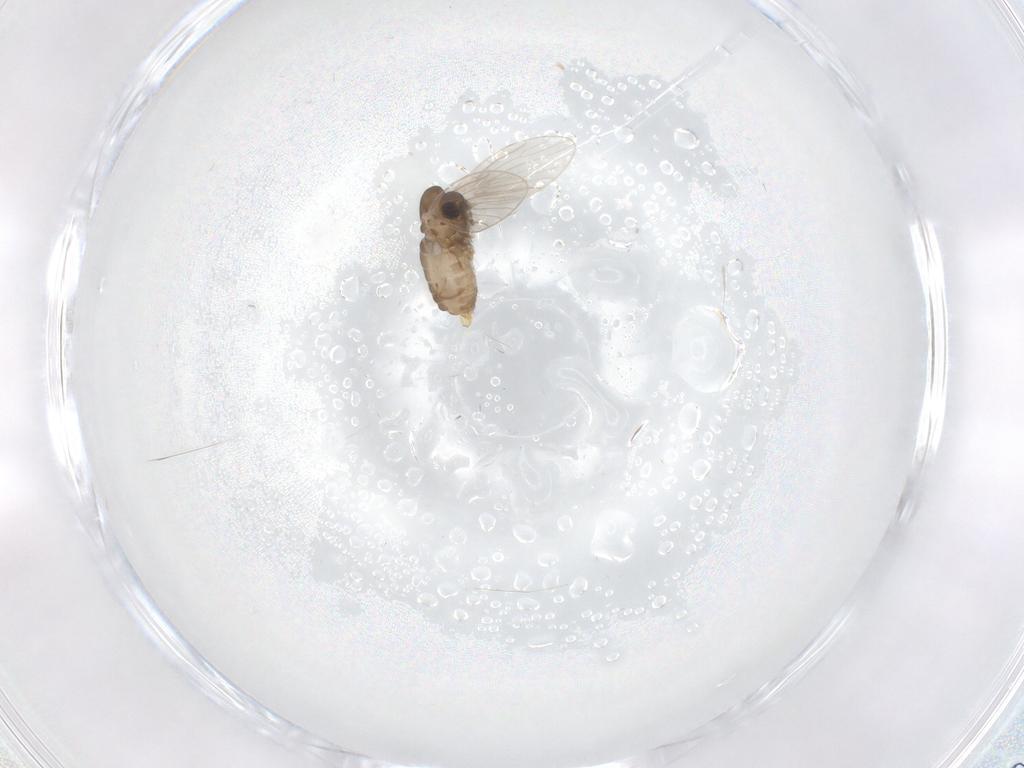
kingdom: Animalia
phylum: Arthropoda
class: Insecta
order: Diptera
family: Psychodidae
